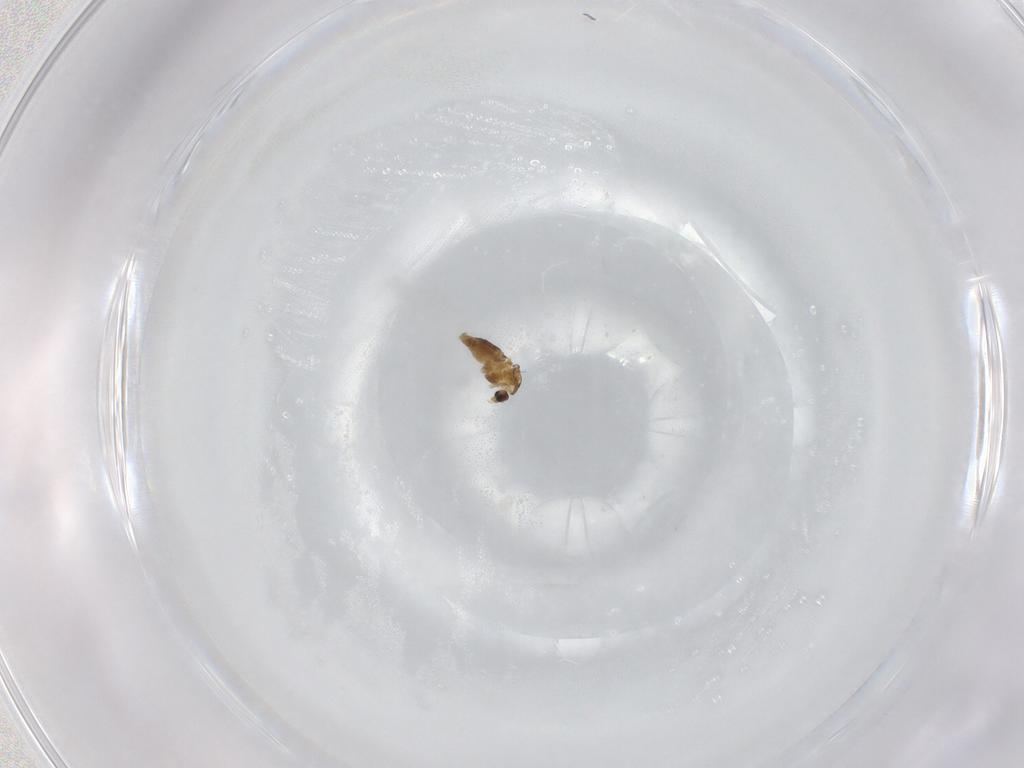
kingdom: Animalia
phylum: Arthropoda
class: Insecta
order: Diptera
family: Chironomidae
